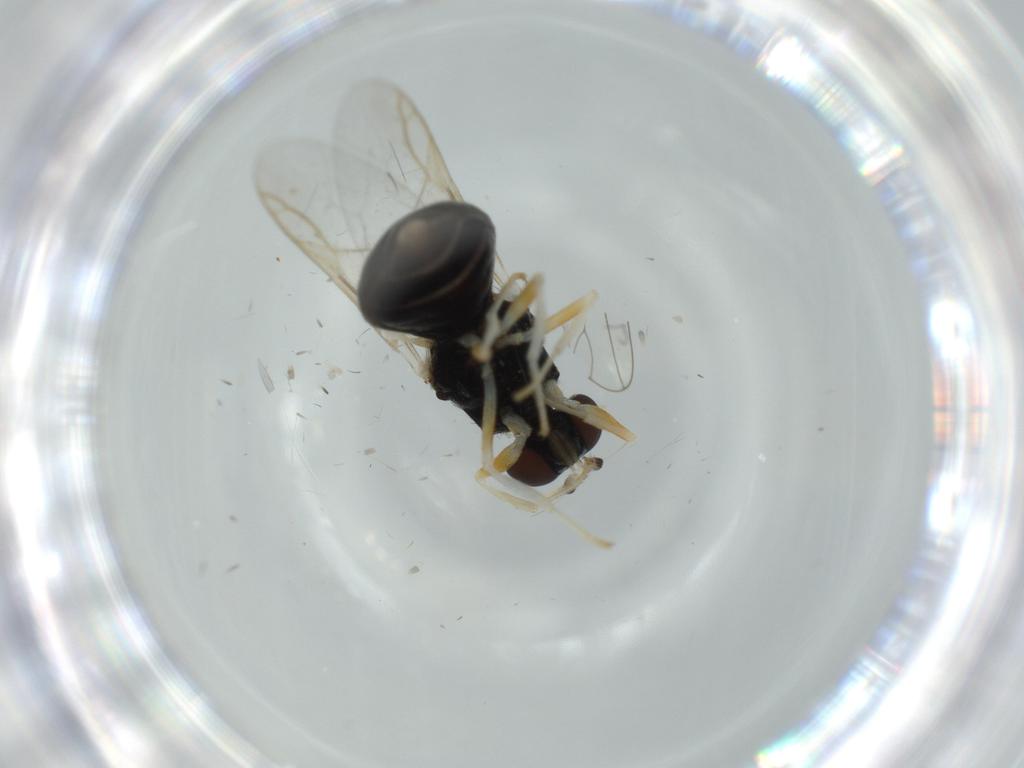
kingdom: Animalia
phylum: Arthropoda
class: Insecta
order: Diptera
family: Stratiomyidae
